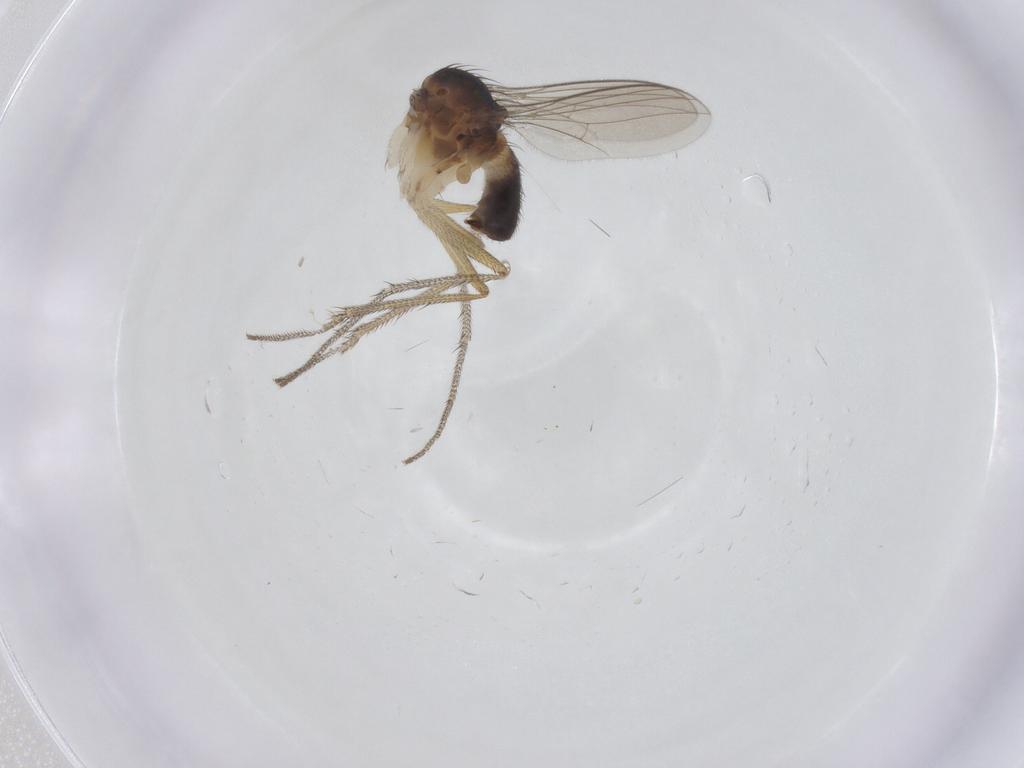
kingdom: Animalia
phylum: Arthropoda
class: Insecta
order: Diptera
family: Dolichopodidae
